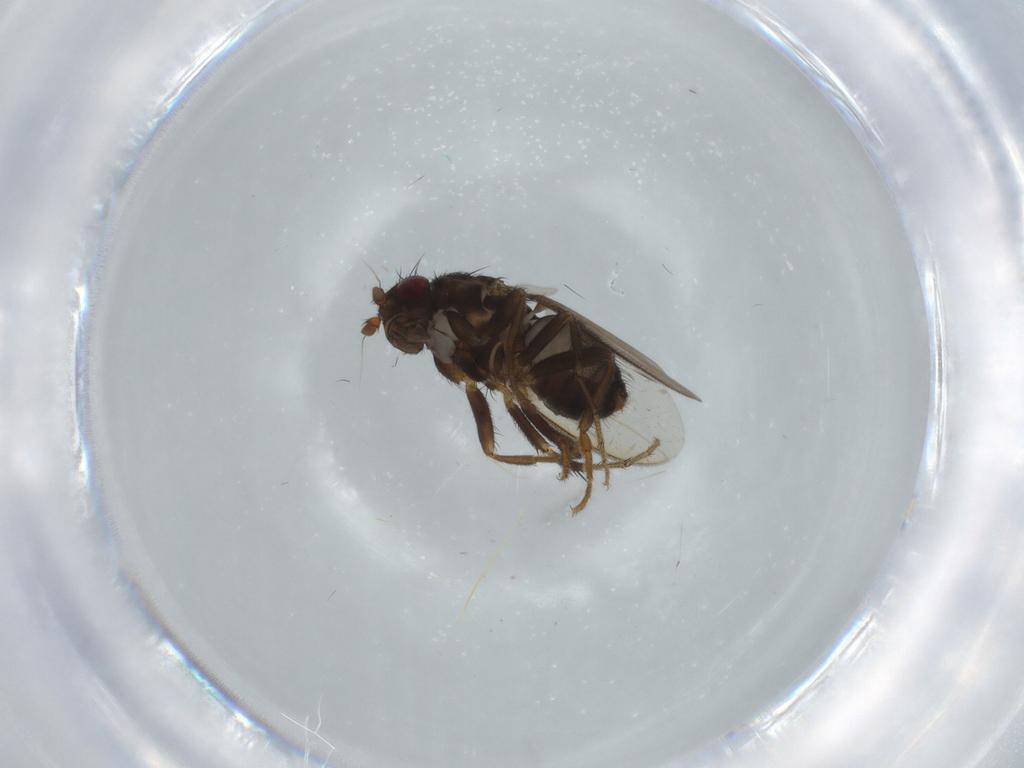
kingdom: Animalia
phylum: Arthropoda
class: Insecta
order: Diptera
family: Sphaeroceridae
